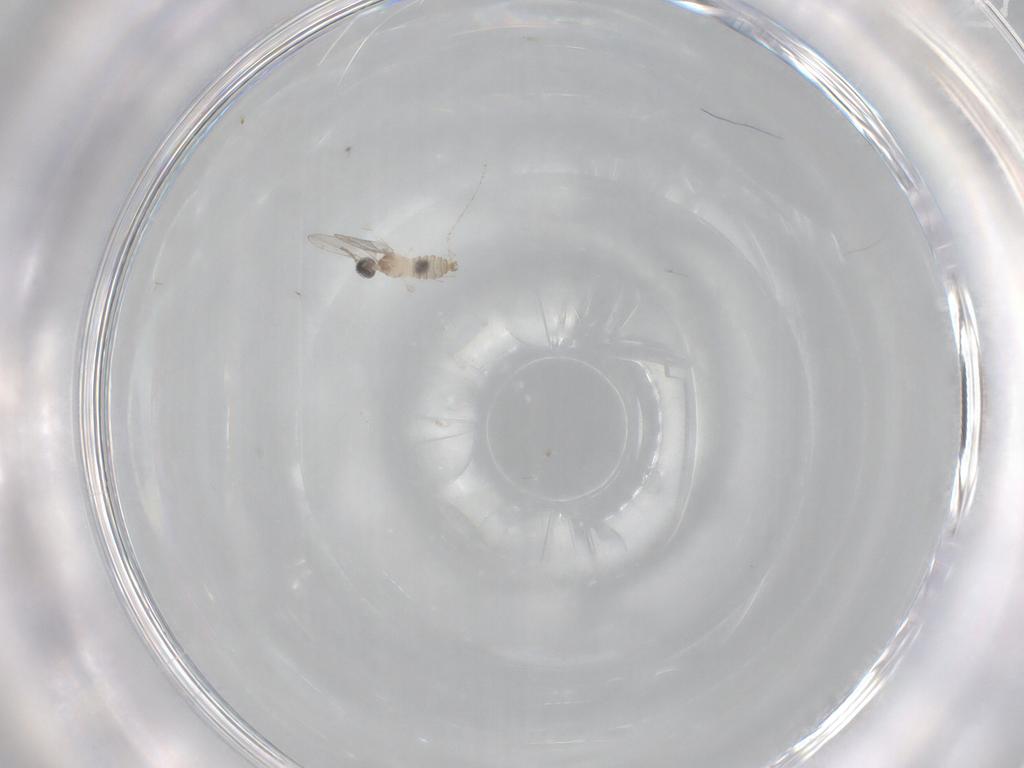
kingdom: Animalia
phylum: Arthropoda
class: Insecta
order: Diptera
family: Cecidomyiidae
